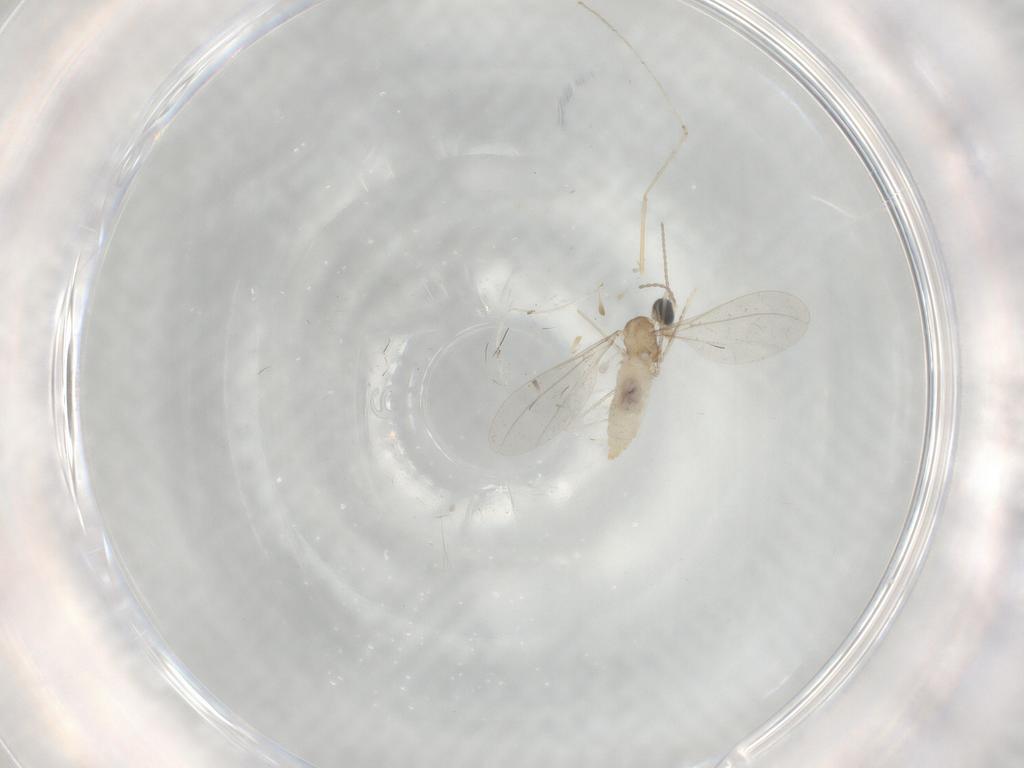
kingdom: Animalia
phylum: Arthropoda
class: Insecta
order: Diptera
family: Cecidomyiidae
